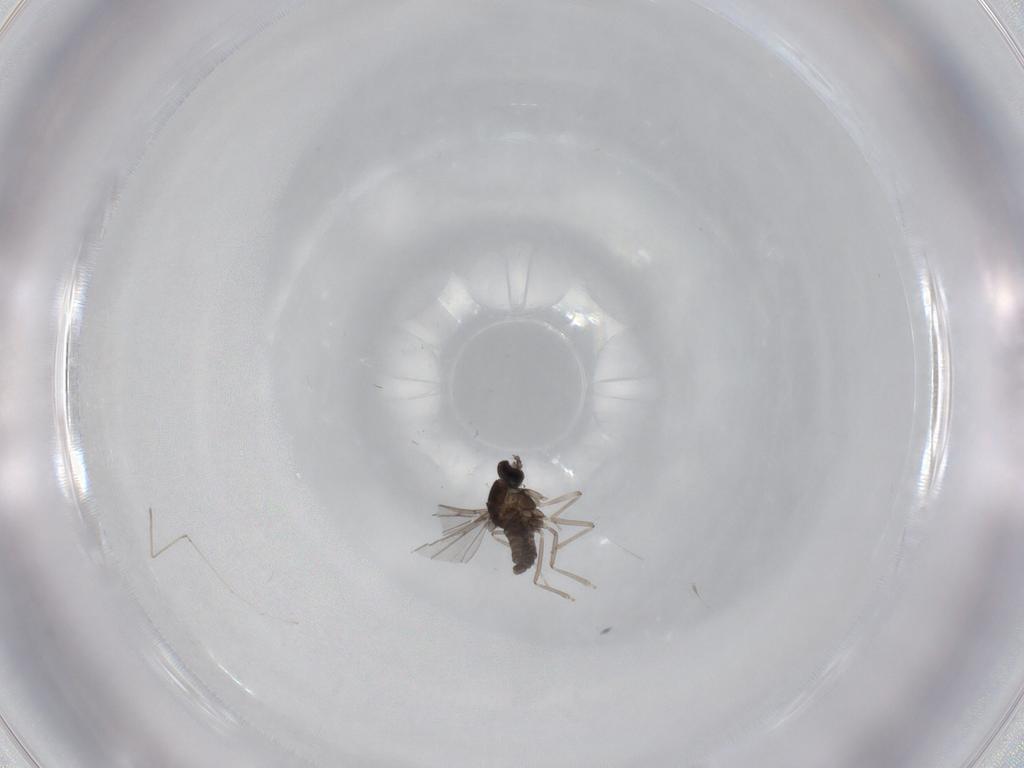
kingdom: Animalia
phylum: Arthropoda
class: Insecta
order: Diptera
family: Cecidomyiidae
